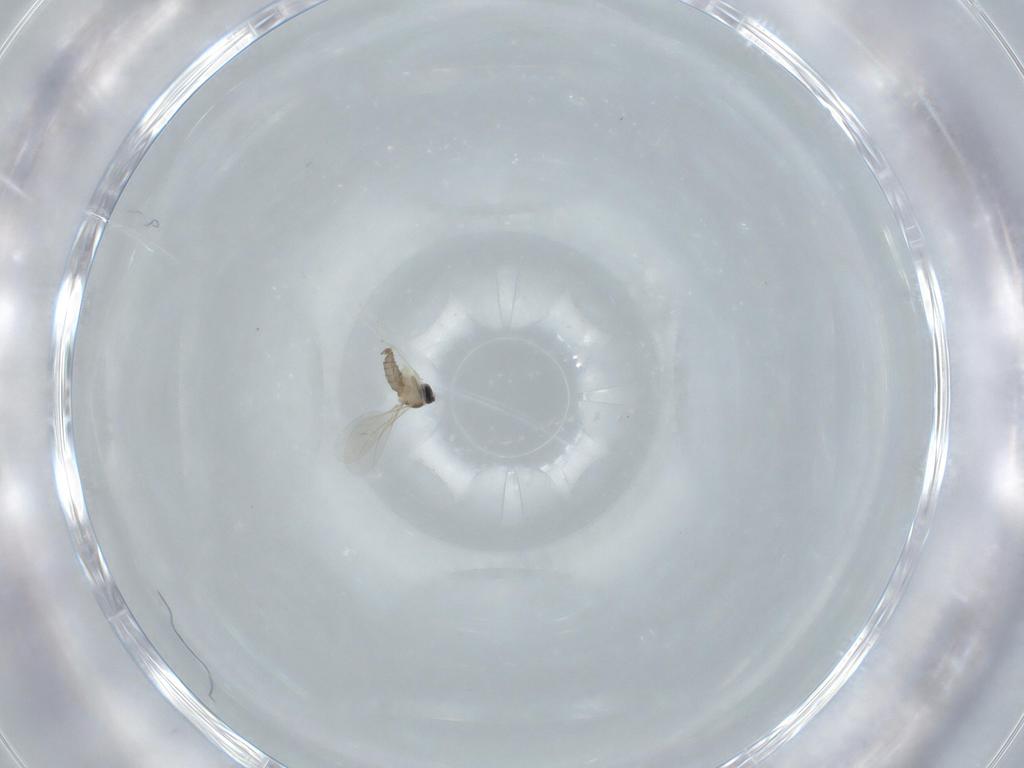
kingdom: Animalia
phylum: Arthropoda
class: Insecta
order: Diptera
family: Cecidomyiidae
